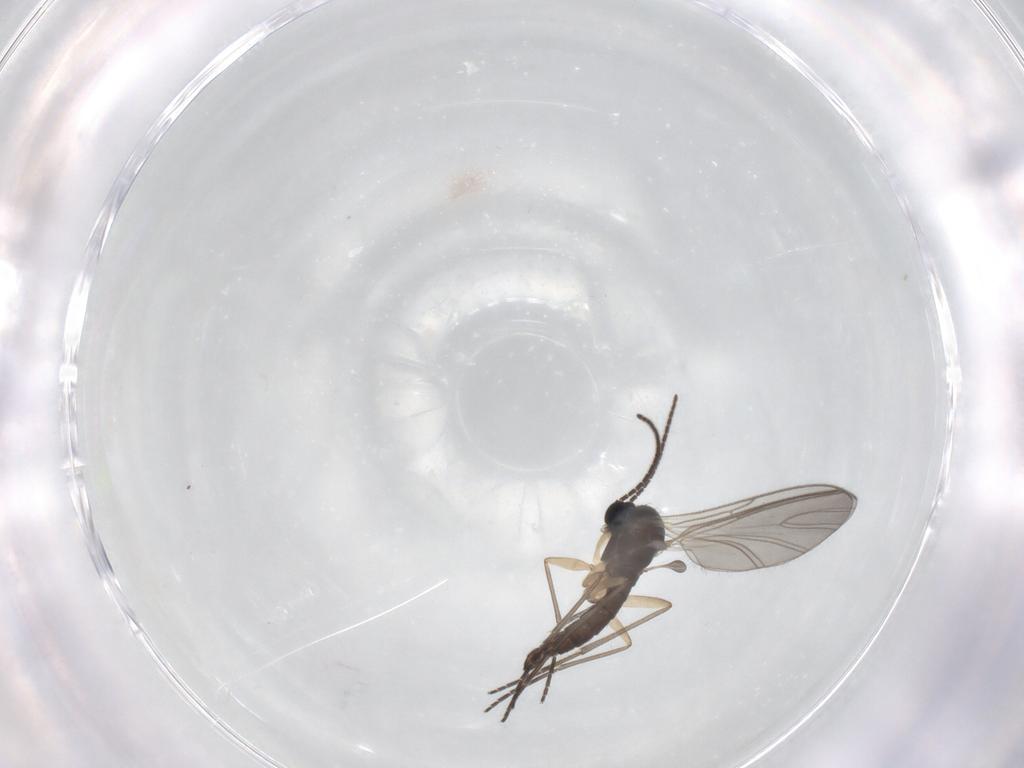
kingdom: Animalia
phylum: Arthropoda
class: Insecta
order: Diptera
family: Sciaridae
